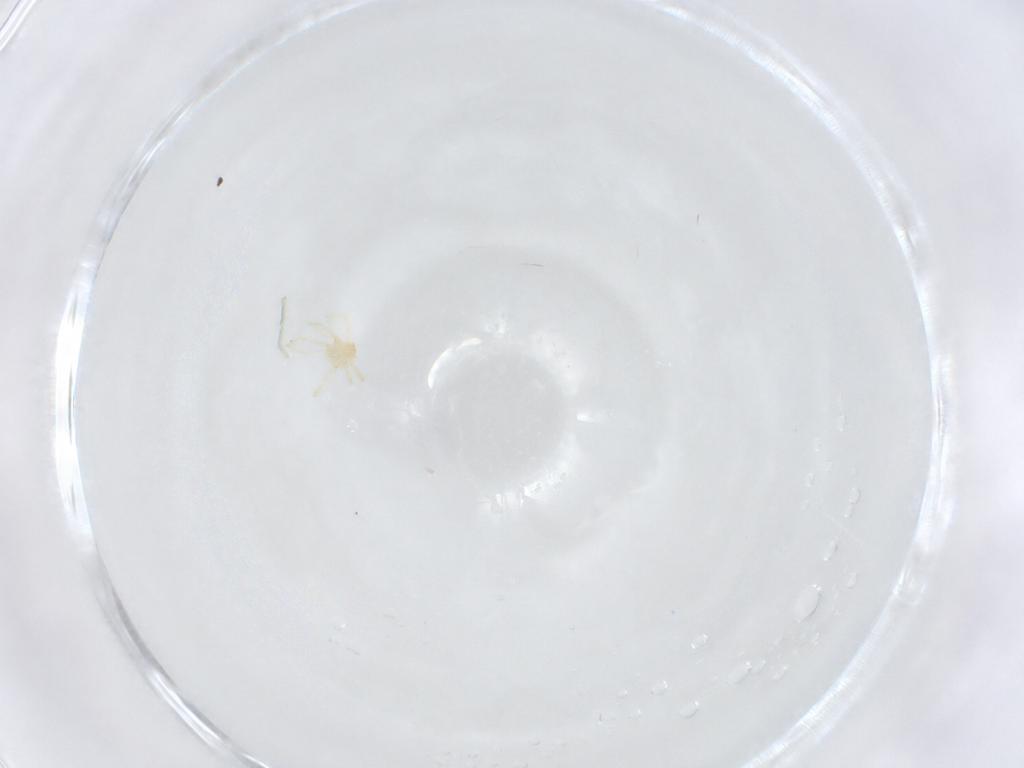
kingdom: Animalia
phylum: Arthropoda
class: Arachnida
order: Trombidiformes
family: Erythraeidae
